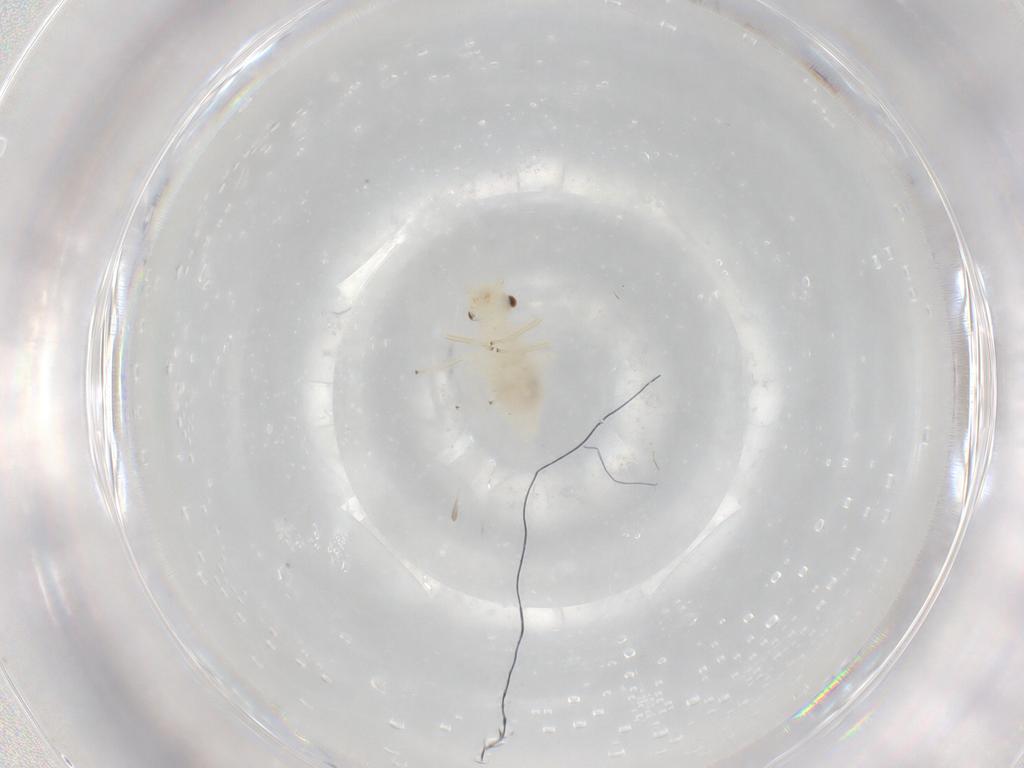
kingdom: Animalia
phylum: Arthropoda
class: Insecta
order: Psocodea
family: Caeciliusidae
